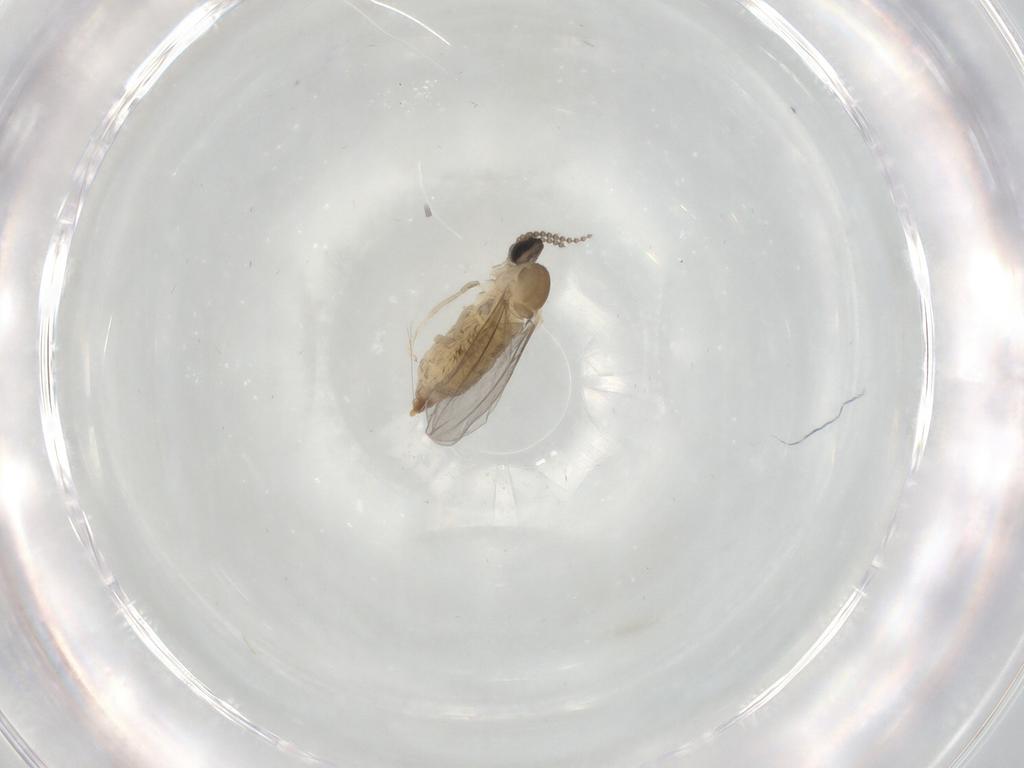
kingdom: Animalia
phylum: Arthropoda
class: Insecta
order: Diptera
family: Cecidomyiidae
